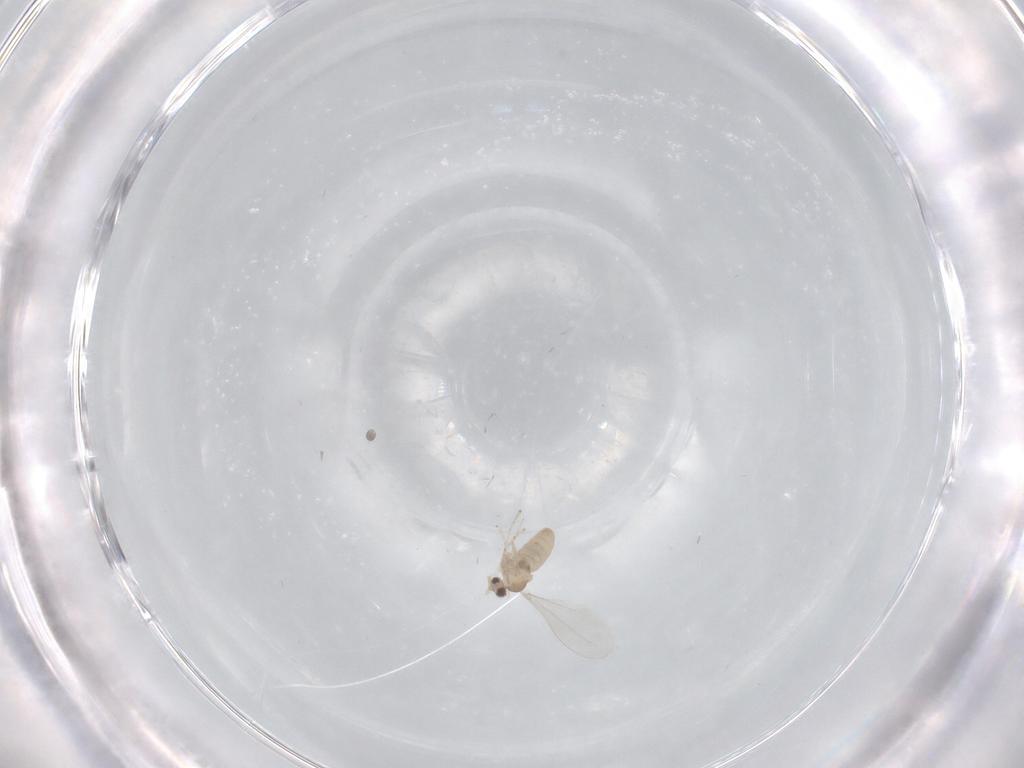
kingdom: Animalia
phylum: Arthropoda
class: Insecta
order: Diptera
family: Cecidomyiidae
